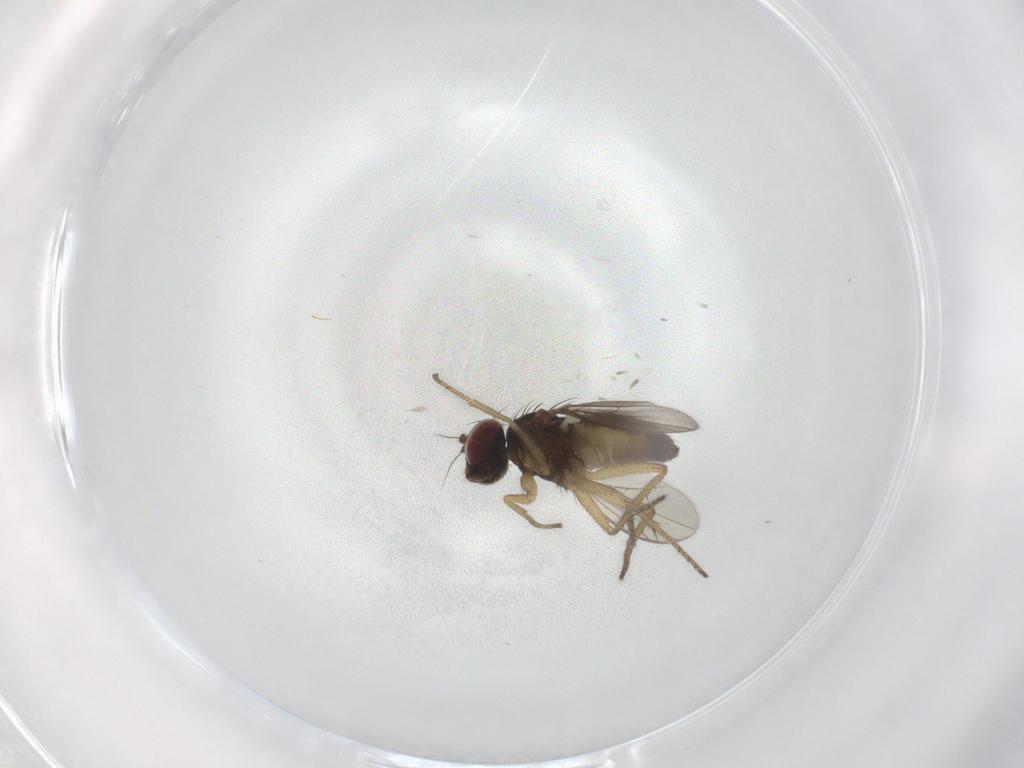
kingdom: Animalia
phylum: Arthropoda
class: Insecta
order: Diptera
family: Dolichopodidae
